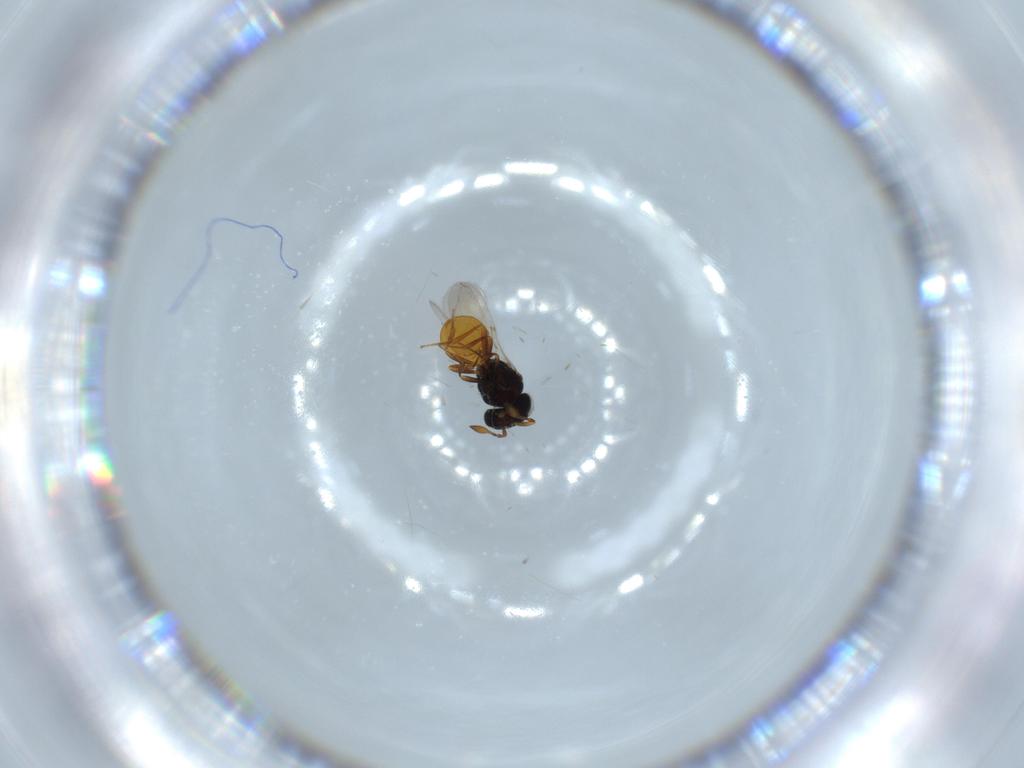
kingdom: Animalia
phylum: Arthropoda
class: Insecta
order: Hymenoptera
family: Scelionidae
